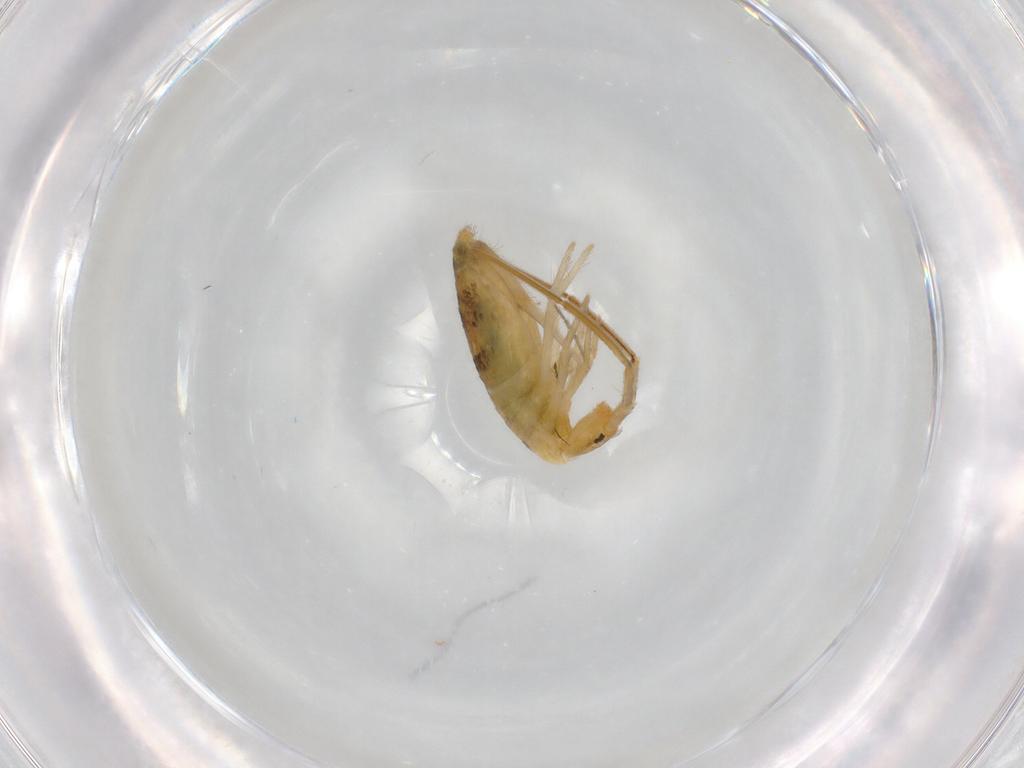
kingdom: Animalia
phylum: Arthropoda
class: Collembola
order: Entomobryomorpha
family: Entomobryidae
